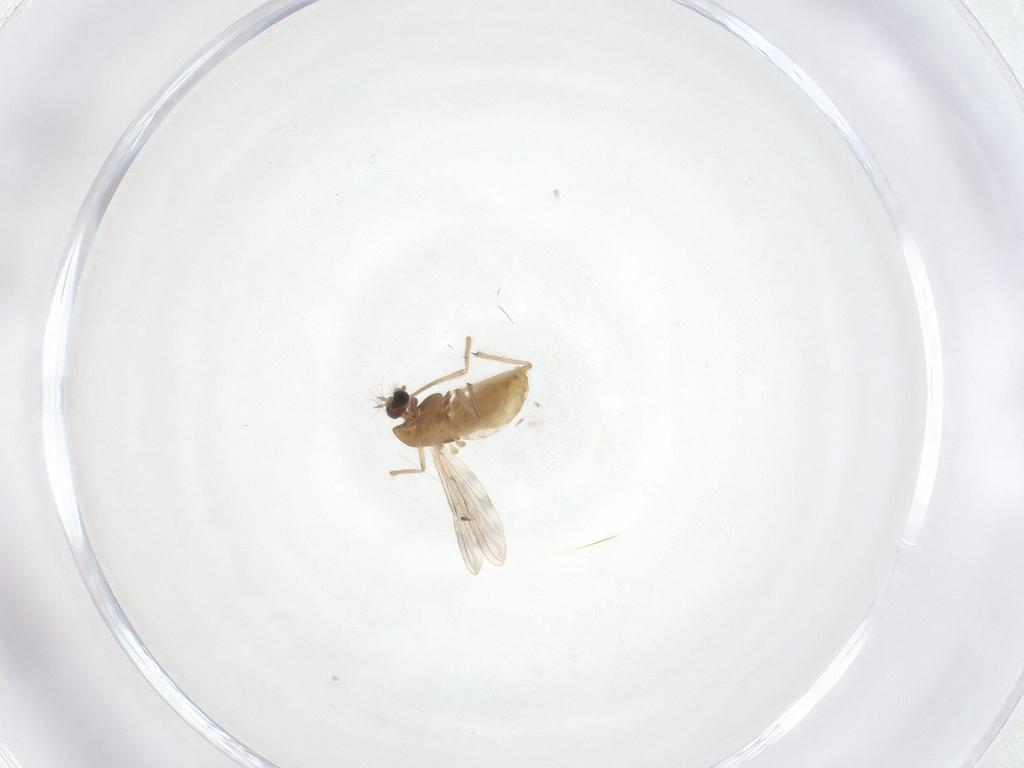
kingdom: Animalia
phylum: Arthropoda
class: Insecta
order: Diptera
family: Chironomidae
